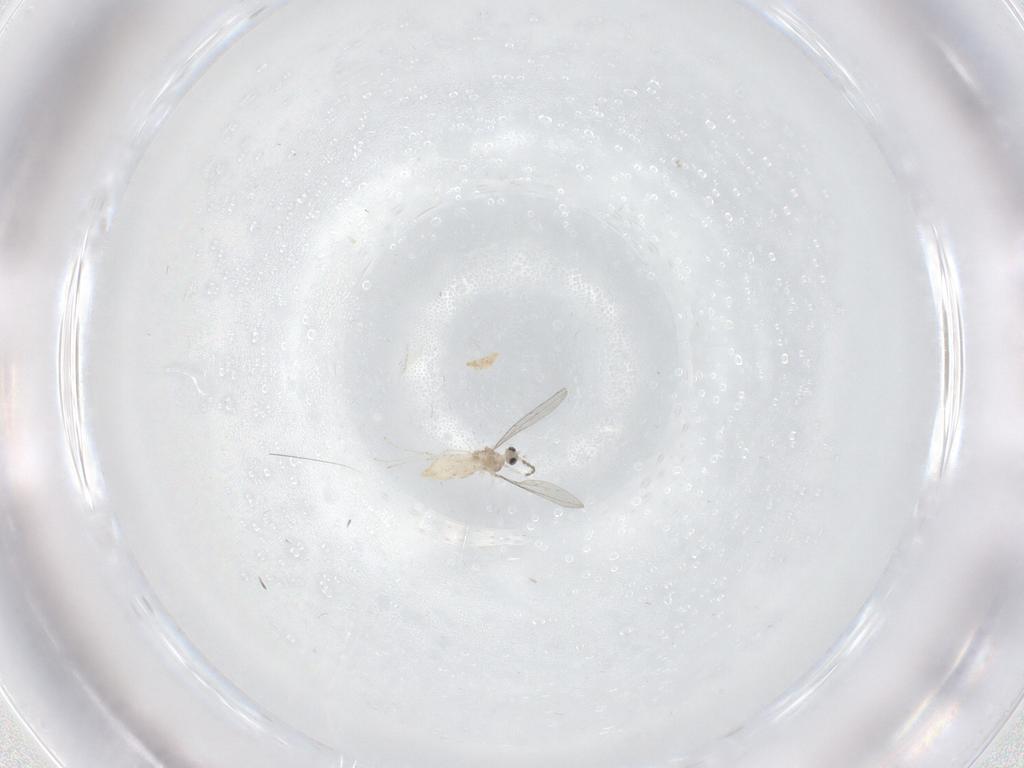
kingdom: Animalia
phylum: Arthropoda
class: Insecta
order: Diptera
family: Cecidomyiidae
